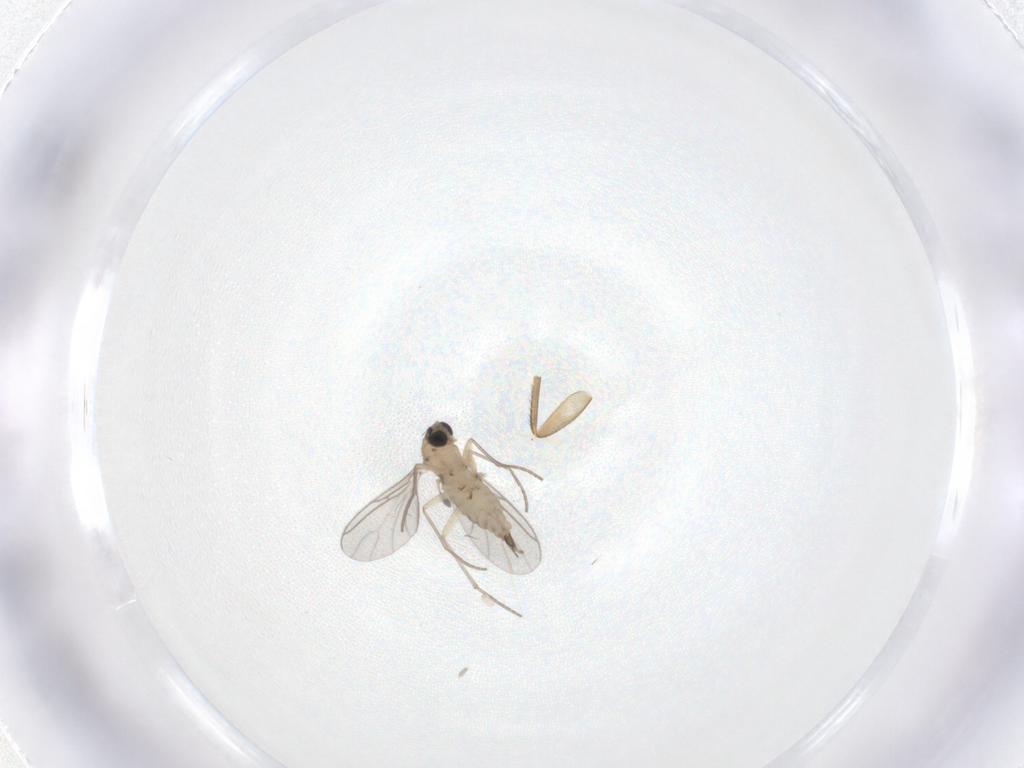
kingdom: Animalia
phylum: Arthropoda
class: Insecta
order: Diptera
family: Sciaridae
